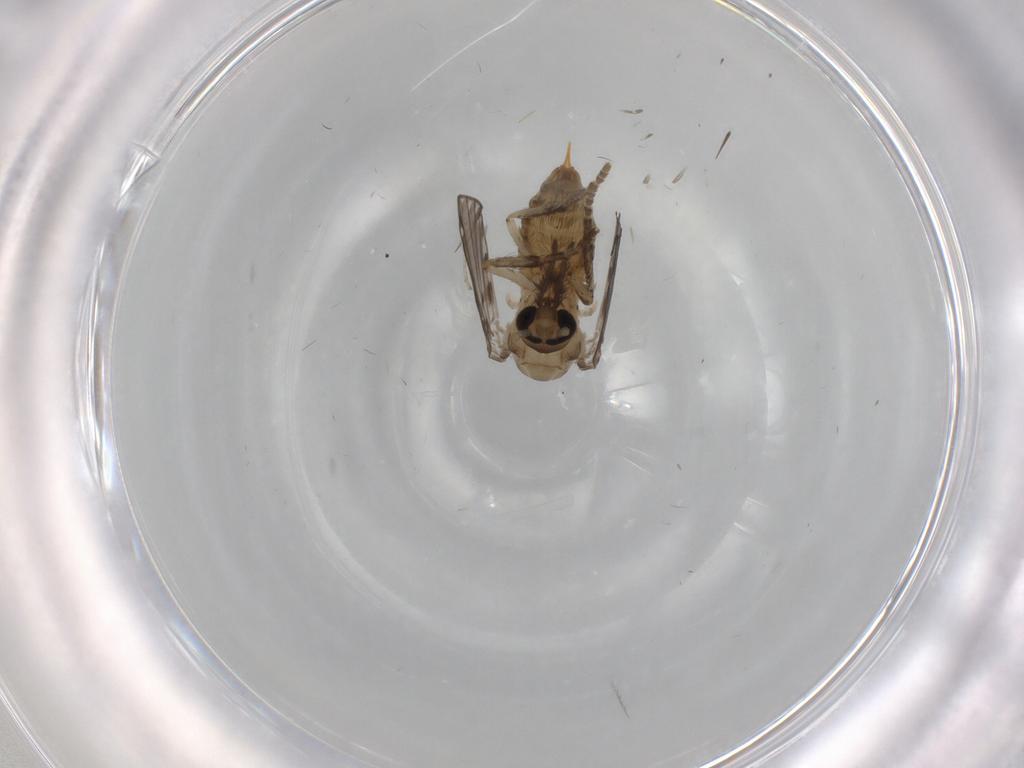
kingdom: Animalia
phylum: Arthropoda
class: Insecta
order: Diptera
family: Psychodidae
